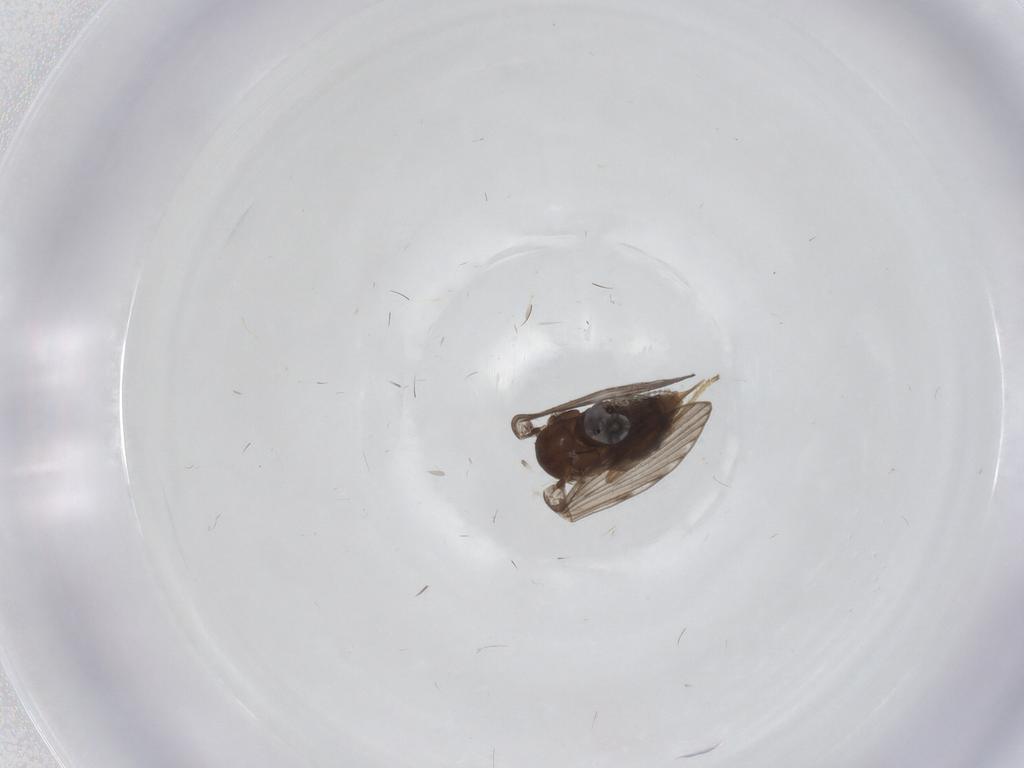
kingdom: Animalia
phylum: Arthropoda
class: Insecta
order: Diptera
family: Psychodidae
